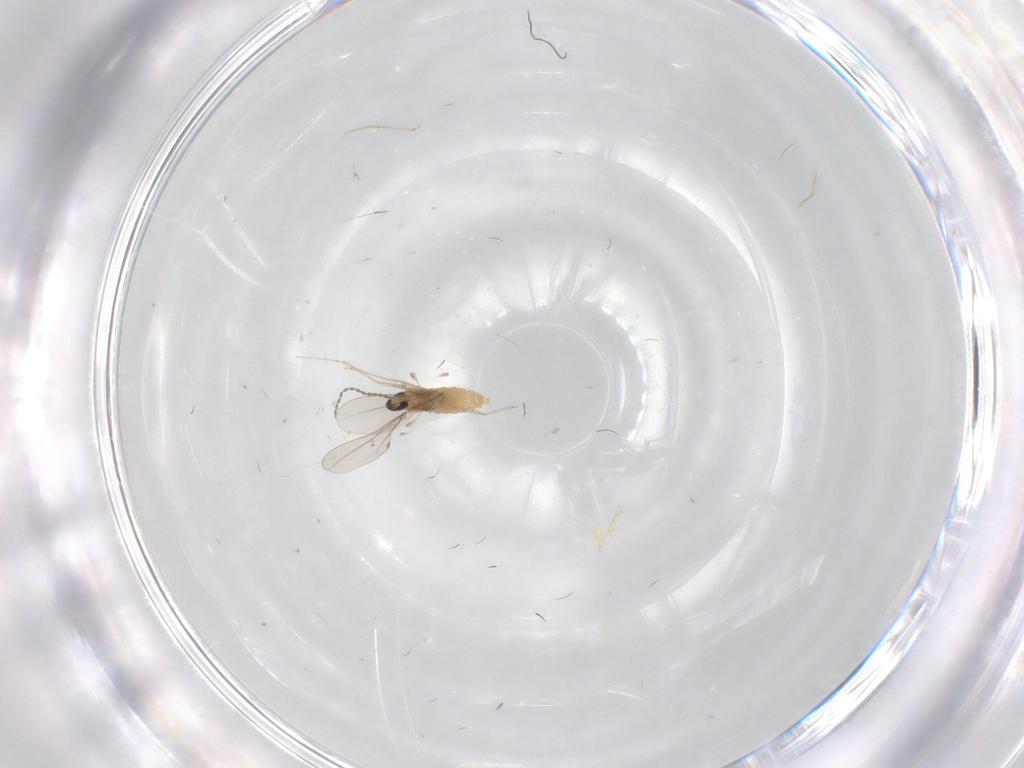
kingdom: Animalia
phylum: Arthropoda
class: Insecta
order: Diptera
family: Cecidomyiidae
